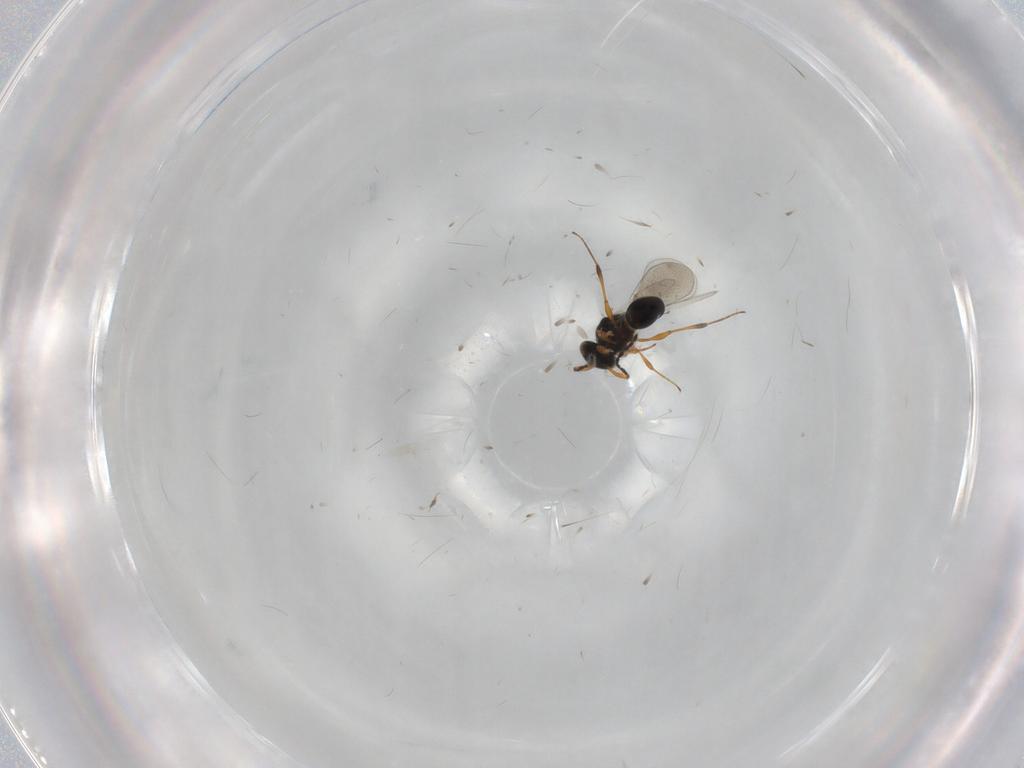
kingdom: Animalia
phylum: Arthropoda
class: Insecta
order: Hymenoptera
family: Platygastridae
